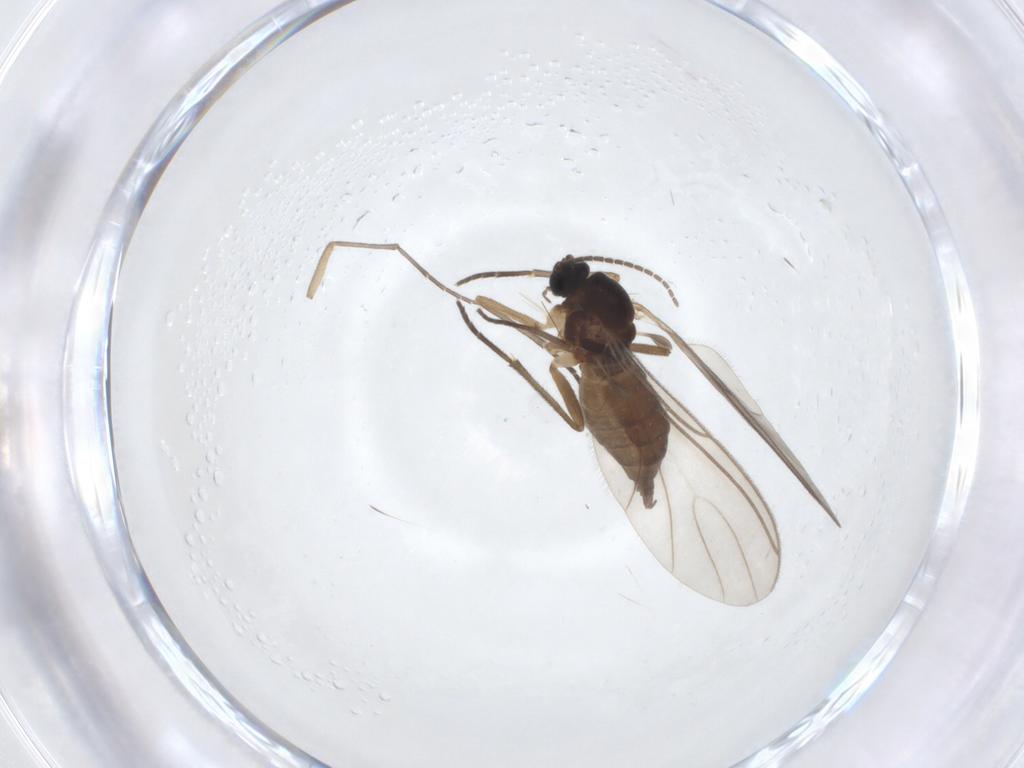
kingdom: Animalia
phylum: Arthropoda
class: Insecta
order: Diptera
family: Sciaridae
